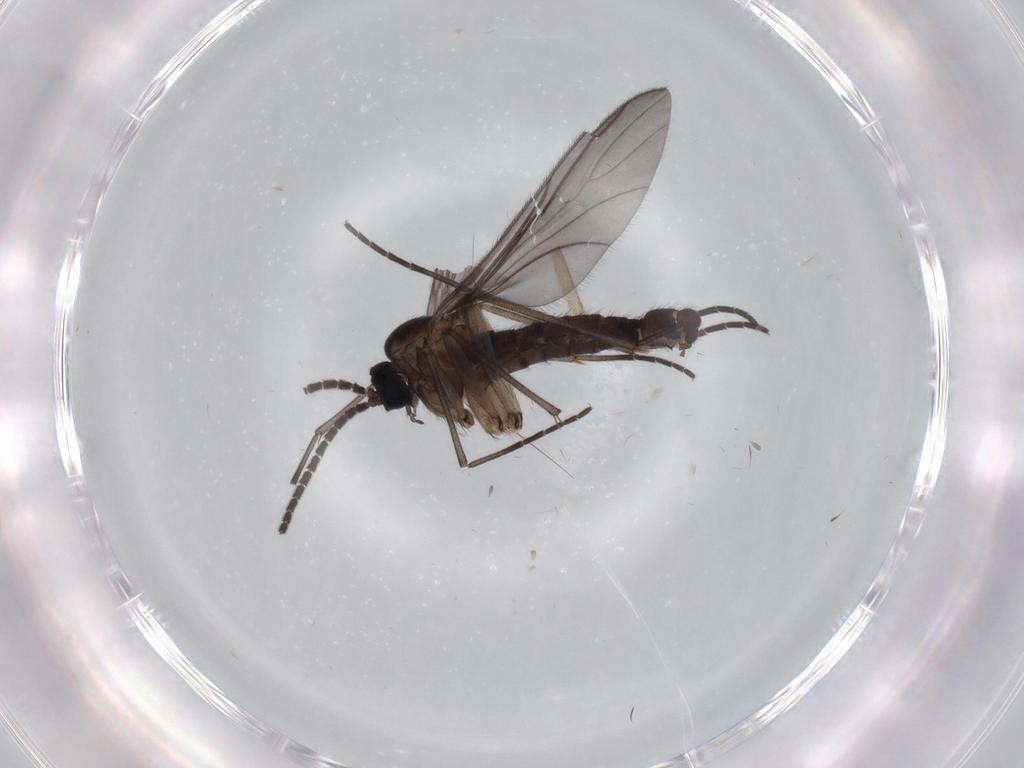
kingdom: Animalia
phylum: Arthropoda
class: Insecta
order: Diptera
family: Sciaridae
